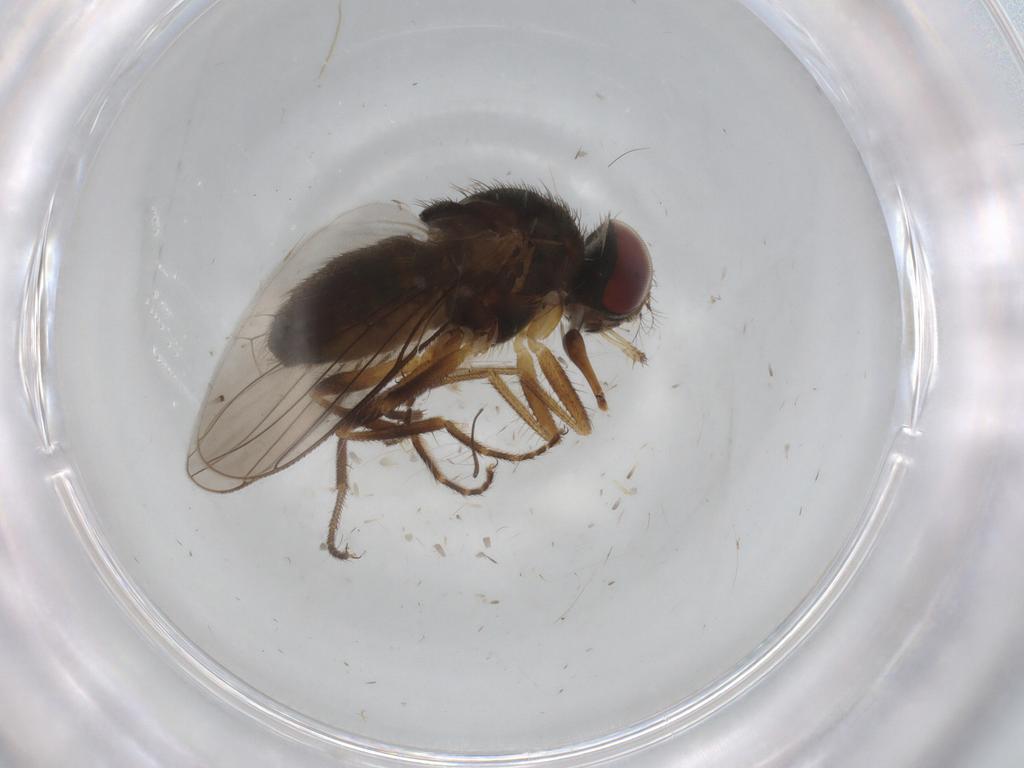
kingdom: Animalia
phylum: Arthropoda
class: Insecta
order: Diptera
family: Muscidae
